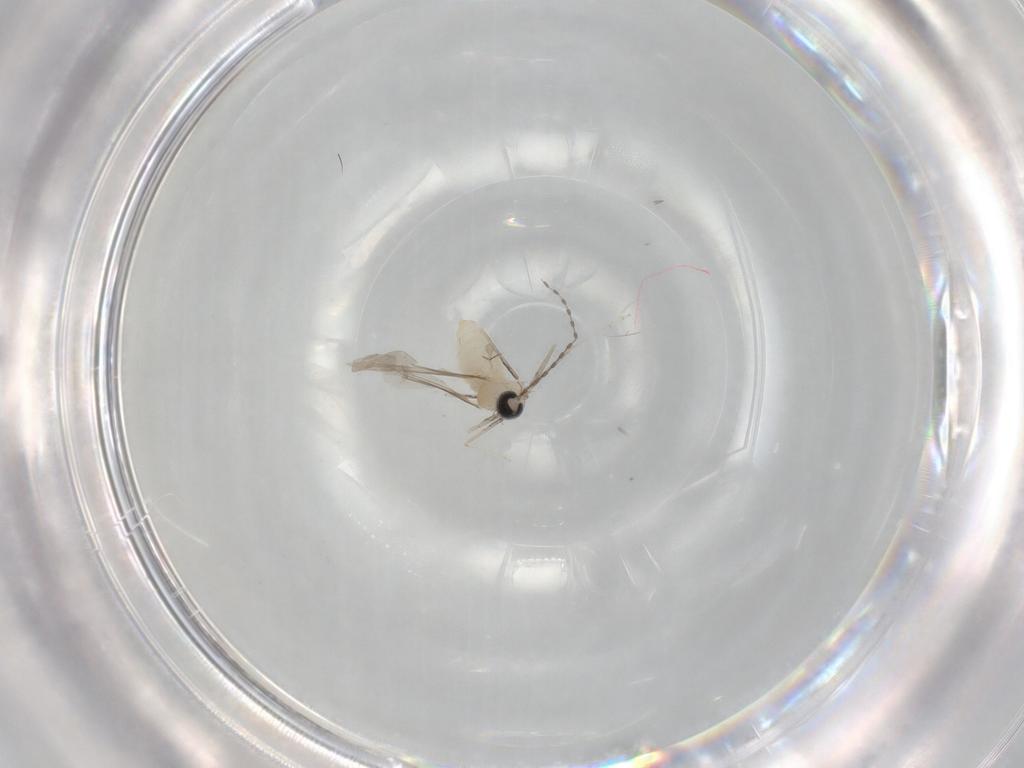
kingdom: Animalia
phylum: Arthropoda
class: Insecta
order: Diptera
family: Cecidomyiidae
